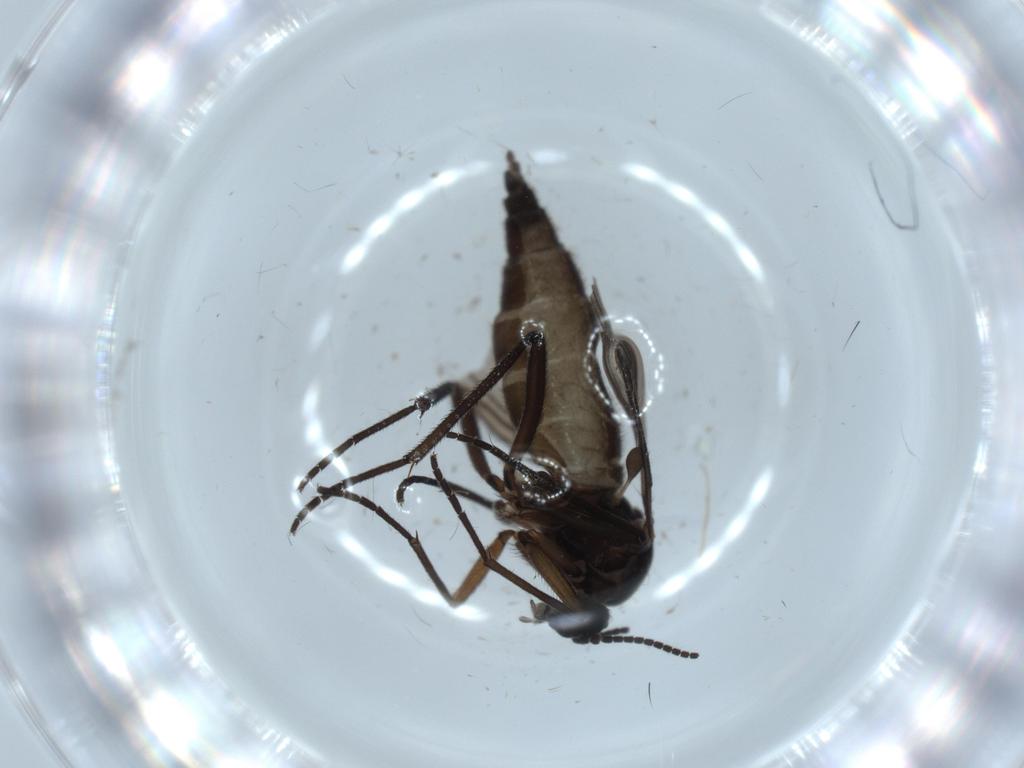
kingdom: Animalia
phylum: Arthropoda
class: Insecta
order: Diptera
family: Sciaridae
